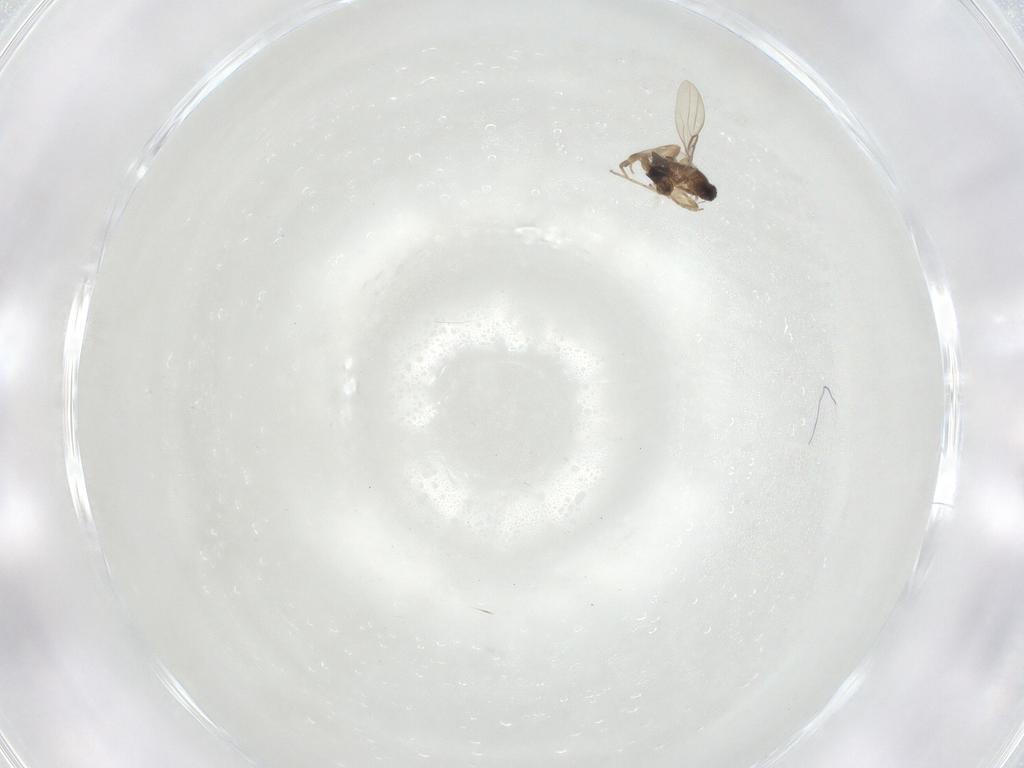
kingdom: Animalia
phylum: Arthropoda
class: Insecta
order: Diptera
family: Phoridae
